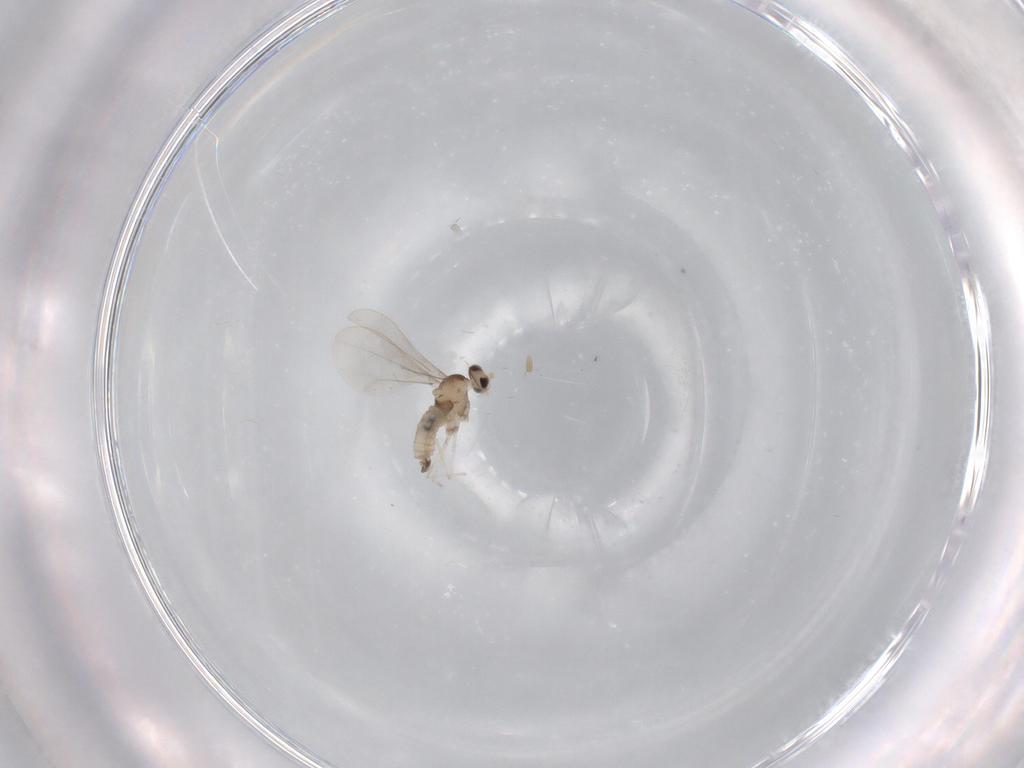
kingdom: Animalia
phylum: Arthropoda
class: Insecta
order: Diptera
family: Cecidomyiidae
